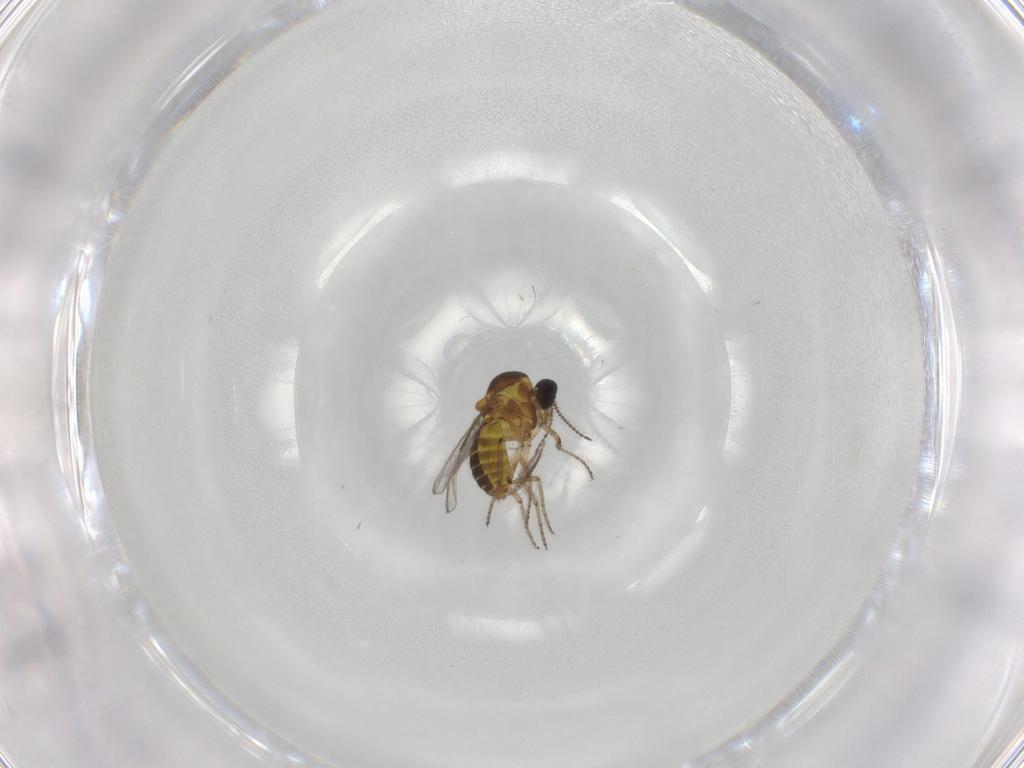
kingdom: Animalia
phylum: Arthropoda
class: Insecta
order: Diptera
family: Ceratopogonidae
